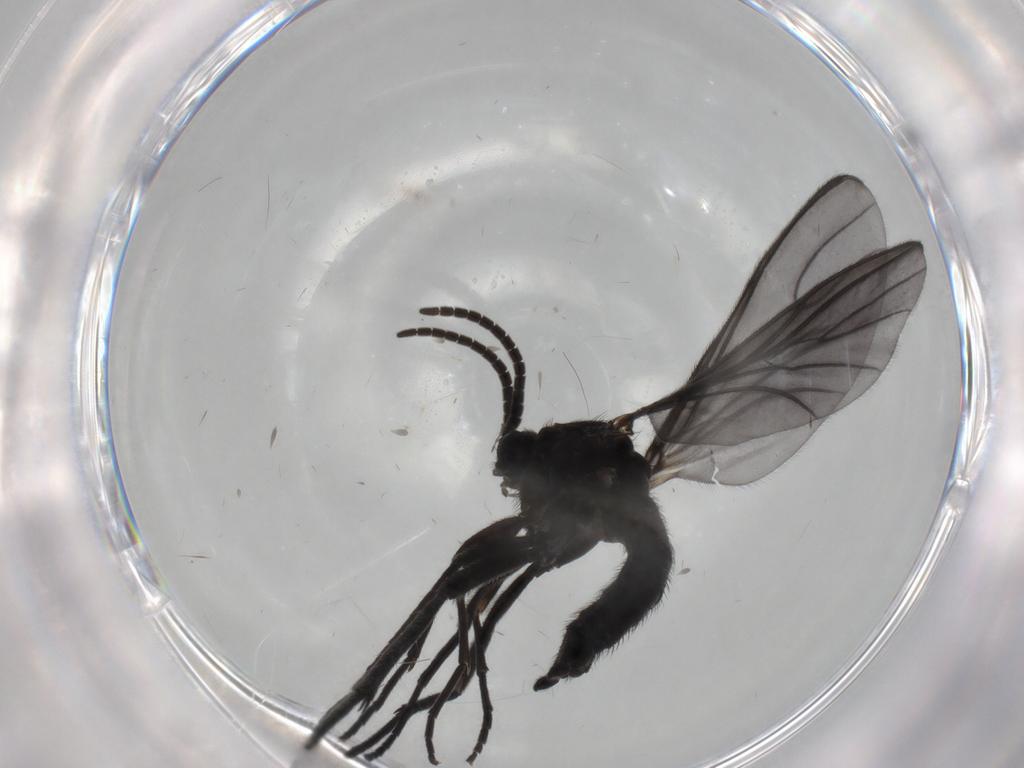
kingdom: Animalia
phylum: Arthropoda
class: Insecta
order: Diptera
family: Sciaridae
